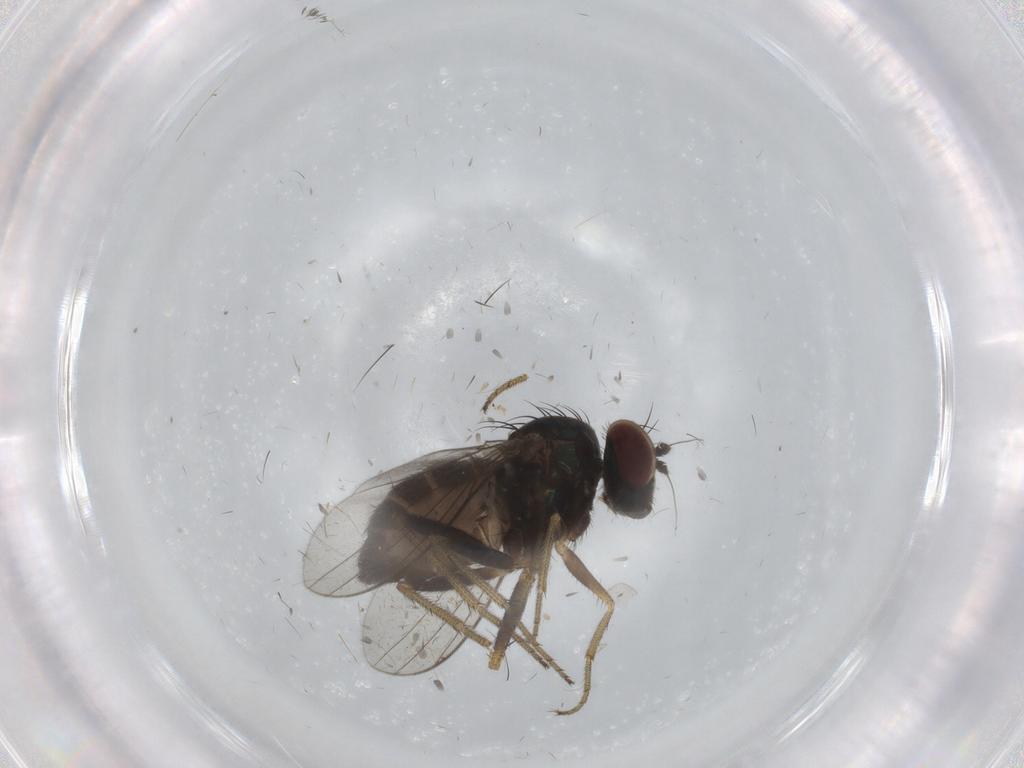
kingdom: Animalia
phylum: Arthropoda
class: Insecta
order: Diptera
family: Dolichopodidae
